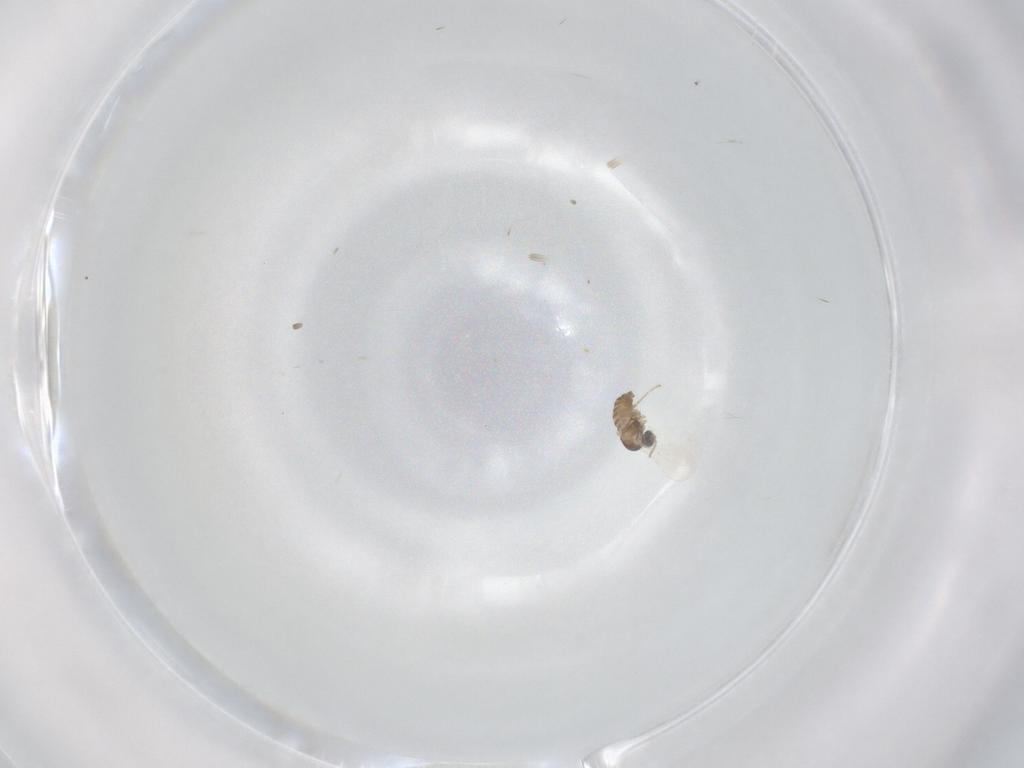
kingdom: Animalia
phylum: Arthropoda
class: Insecta
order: Diptera
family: Cecidomyiidae
